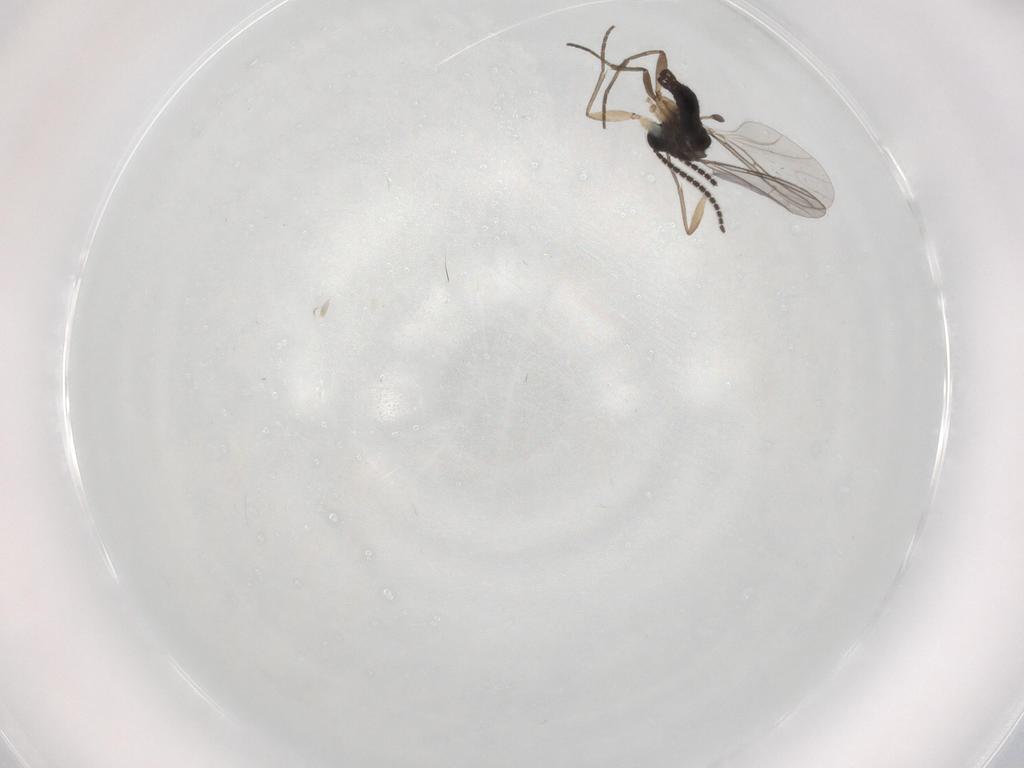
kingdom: Animalia
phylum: Arthropoda
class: Insecta
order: Diptera
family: Sciaridae
